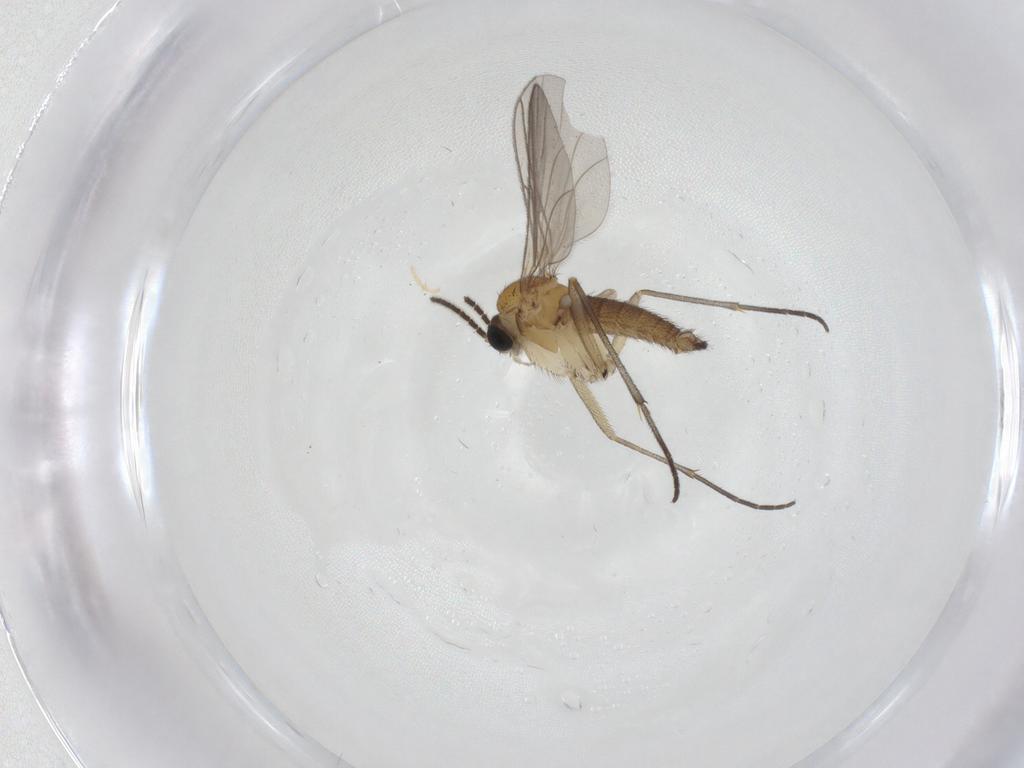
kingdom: Animalia
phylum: Arthropoda
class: Insecta
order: Diptera
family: Sciaridae
